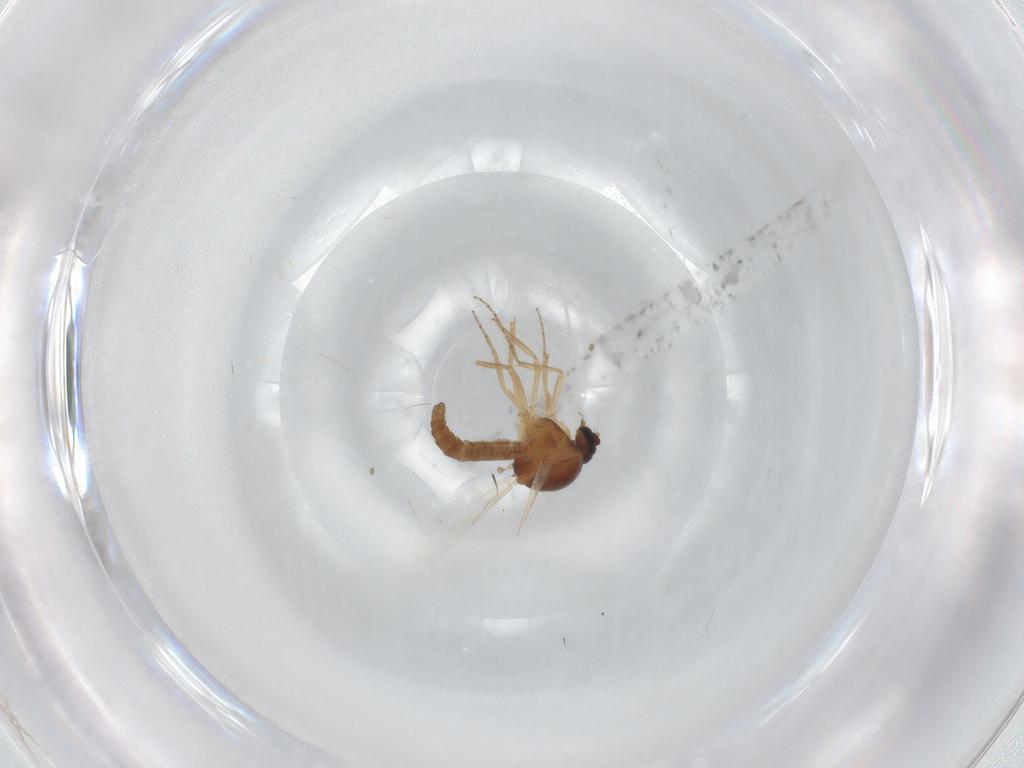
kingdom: Animalia
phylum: Arthropoda
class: Insecta
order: Diptera
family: Ceratopogonidae
